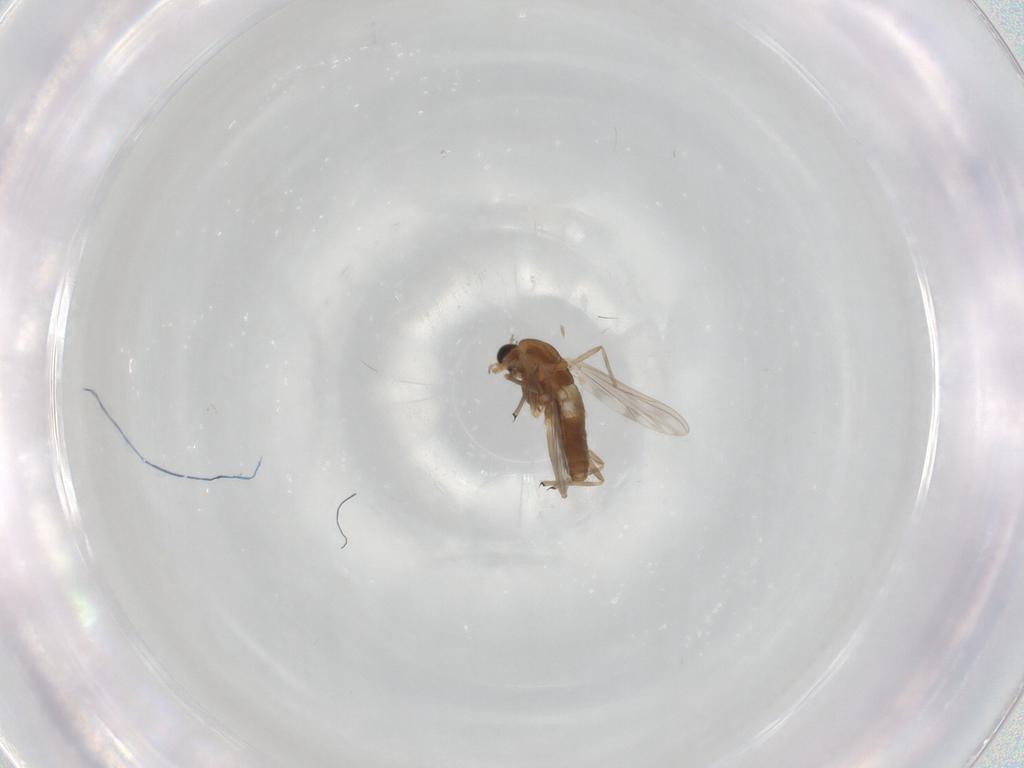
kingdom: Animalia
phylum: Arthropoda
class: Insecta
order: Diptera
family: Chironomidae
